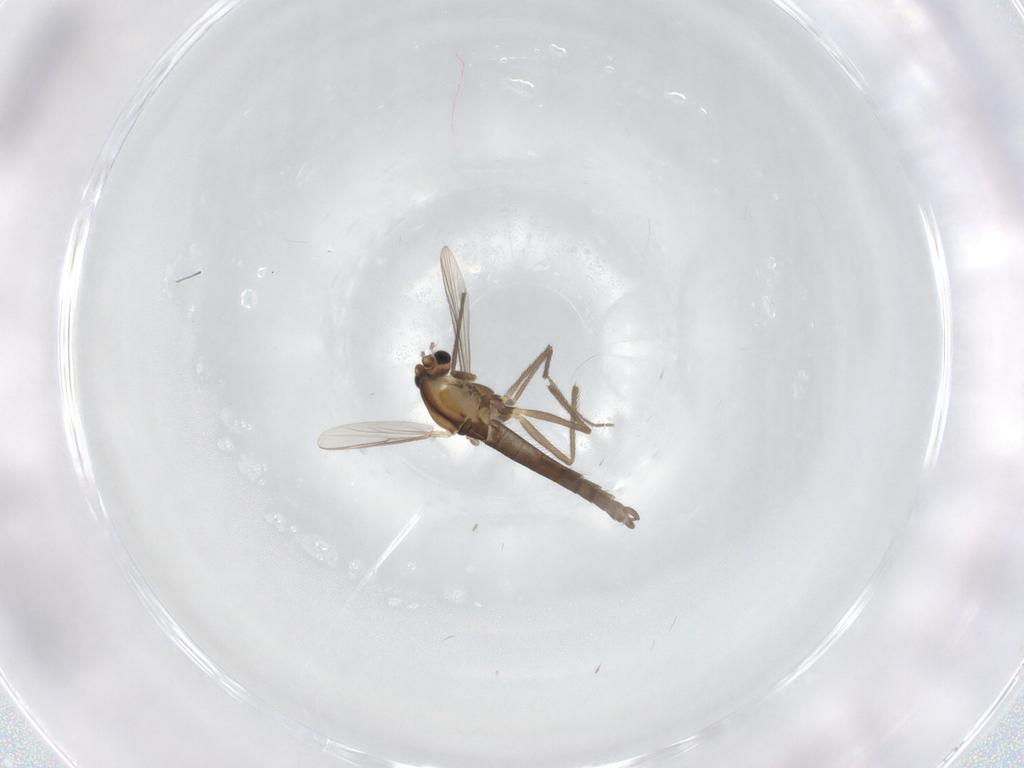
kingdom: Animalia
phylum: Arthropoda
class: Insecta
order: Diptera
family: Chironomidae
